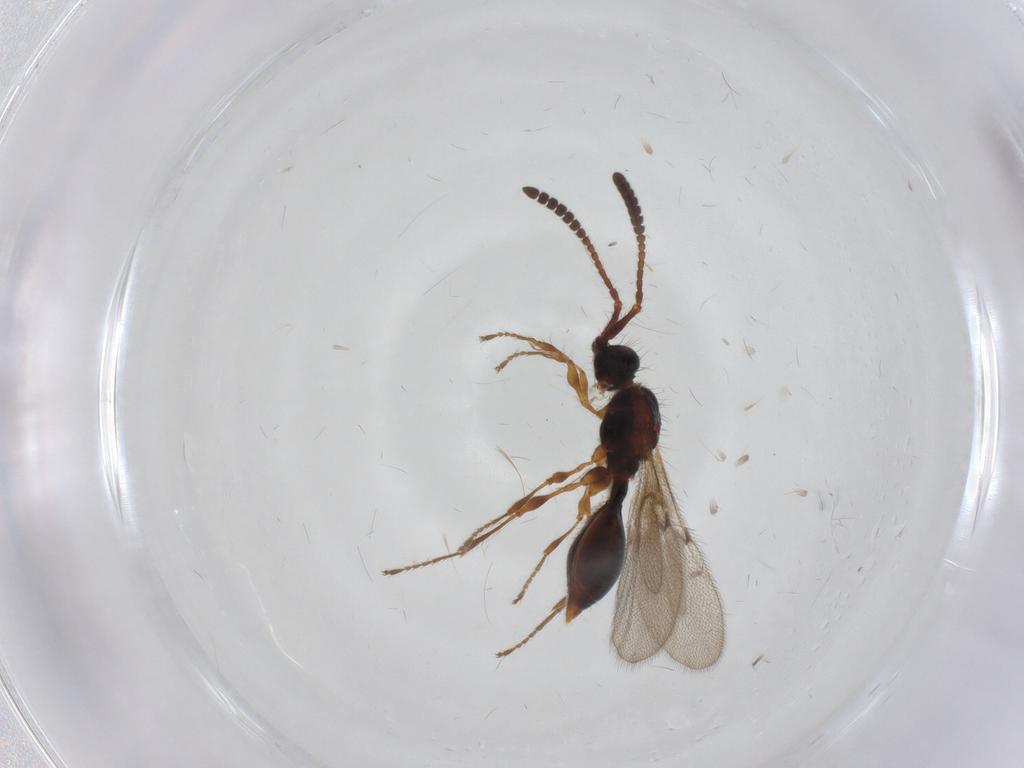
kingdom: Animalia
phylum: Arthropoda
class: Insecta
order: Hymenoptera
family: Diapriidae
